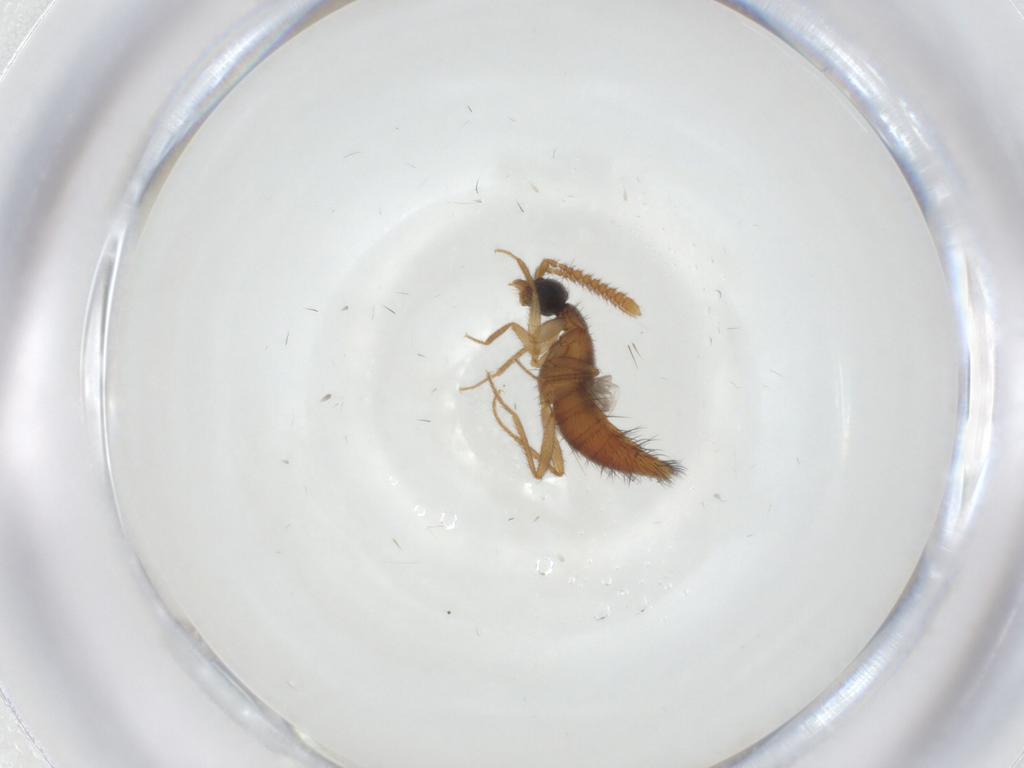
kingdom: Animalia
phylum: Arthropoda
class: Insecta
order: Coleoptera
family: Staphylinidae
